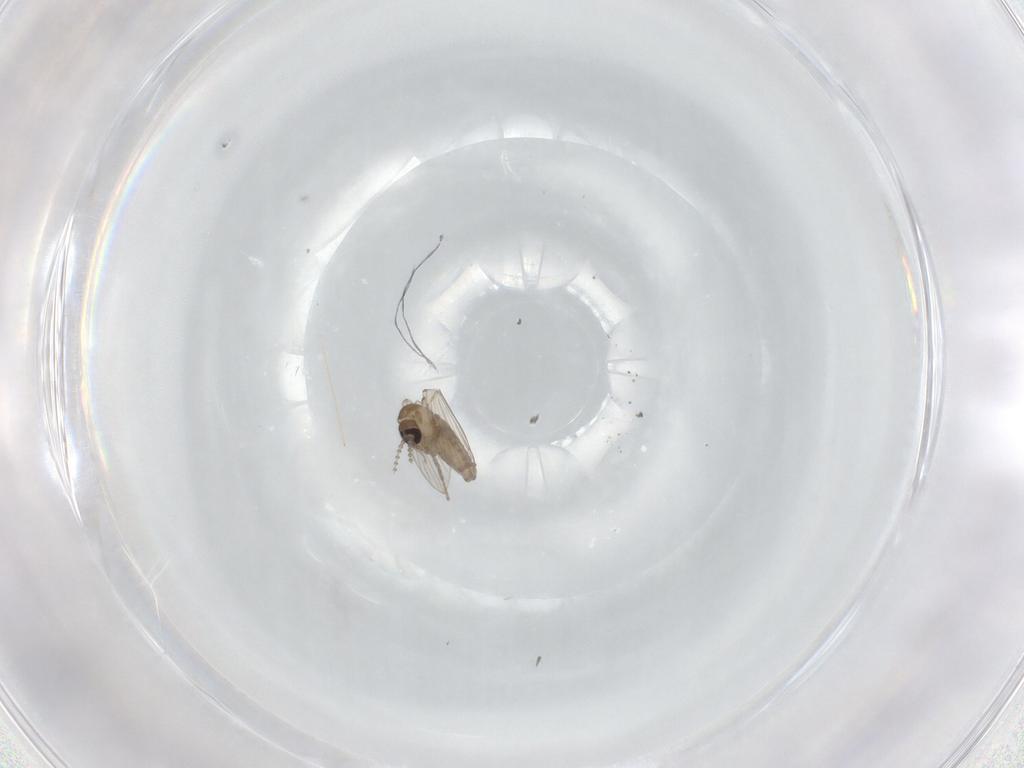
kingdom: Animalia
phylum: Arthropoda
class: Insecta
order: Diptera
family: Psychodidae
